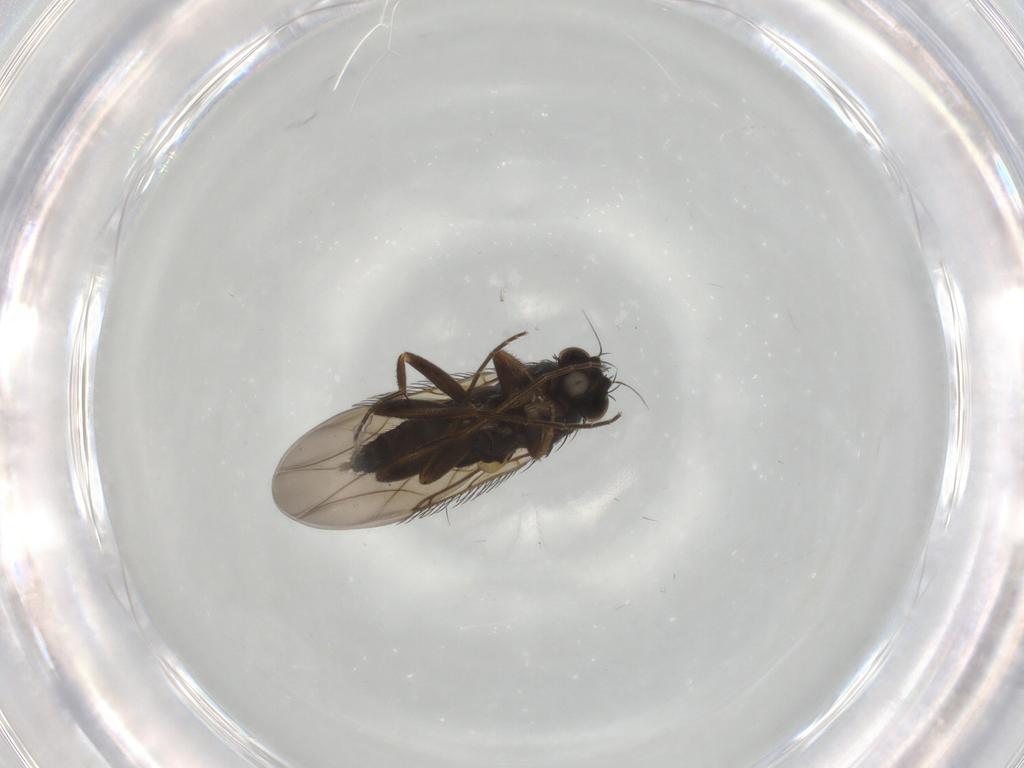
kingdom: Animalia
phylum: Arthropoda
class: Insecta
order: Diptera
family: Phoridae
